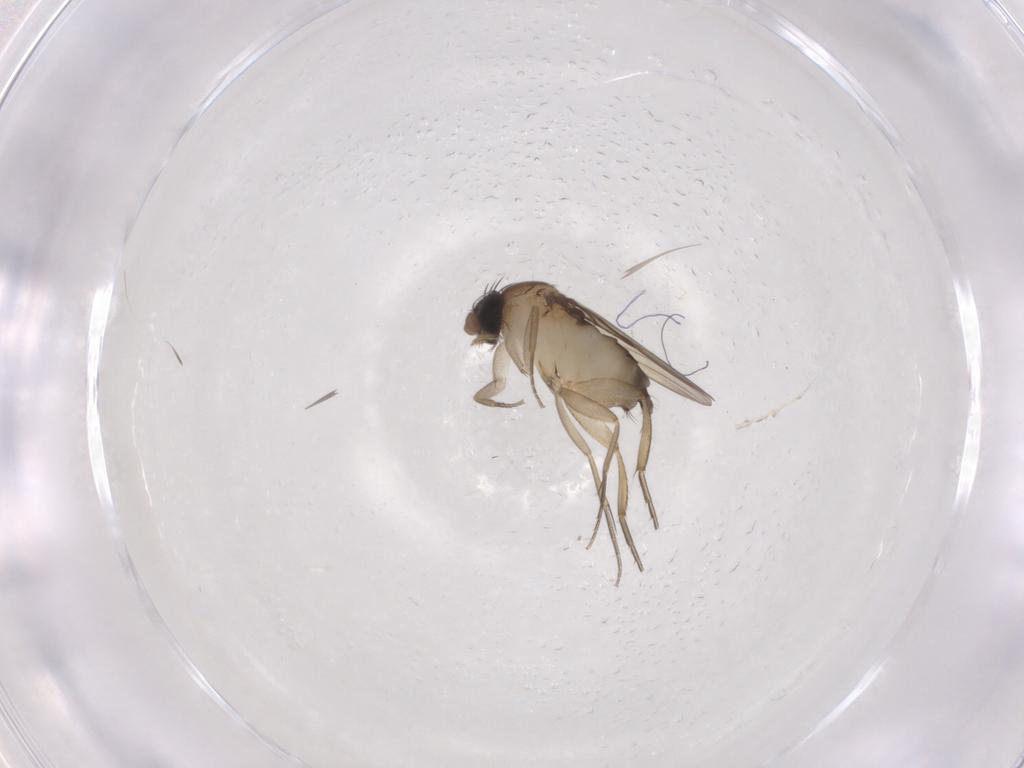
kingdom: Animalia
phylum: Arthropoda
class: Insecta
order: Diptera
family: Phoridae
